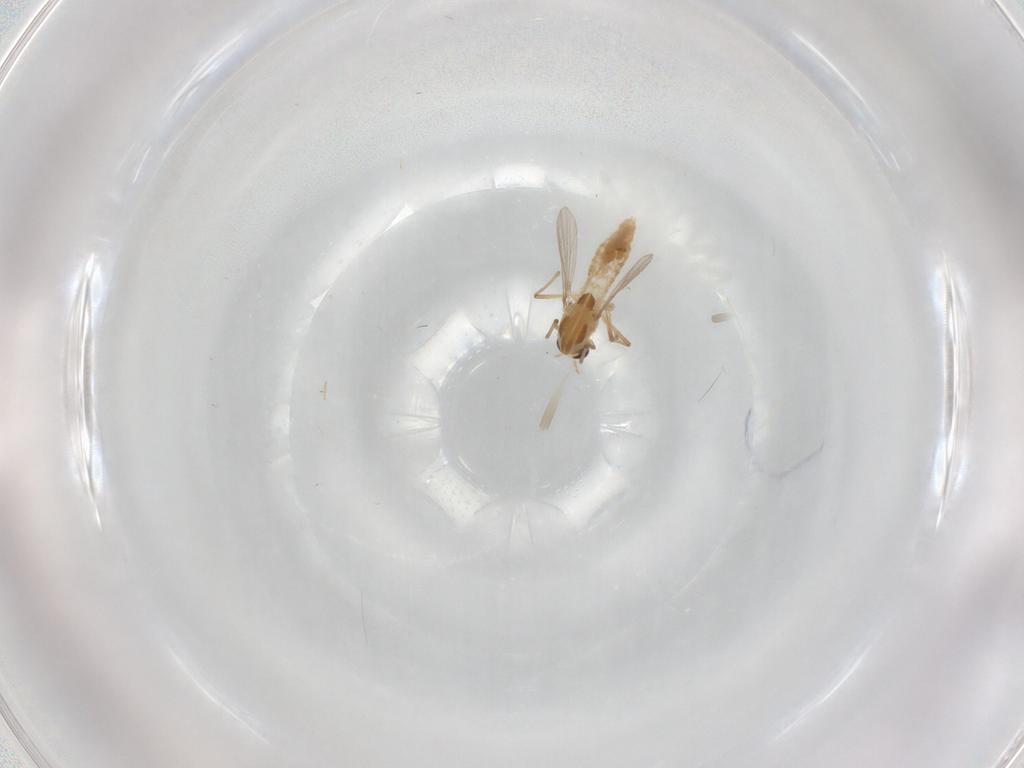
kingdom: Animalia
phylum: Arthropoda
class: Insecta
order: Diptera
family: Chironomidae
